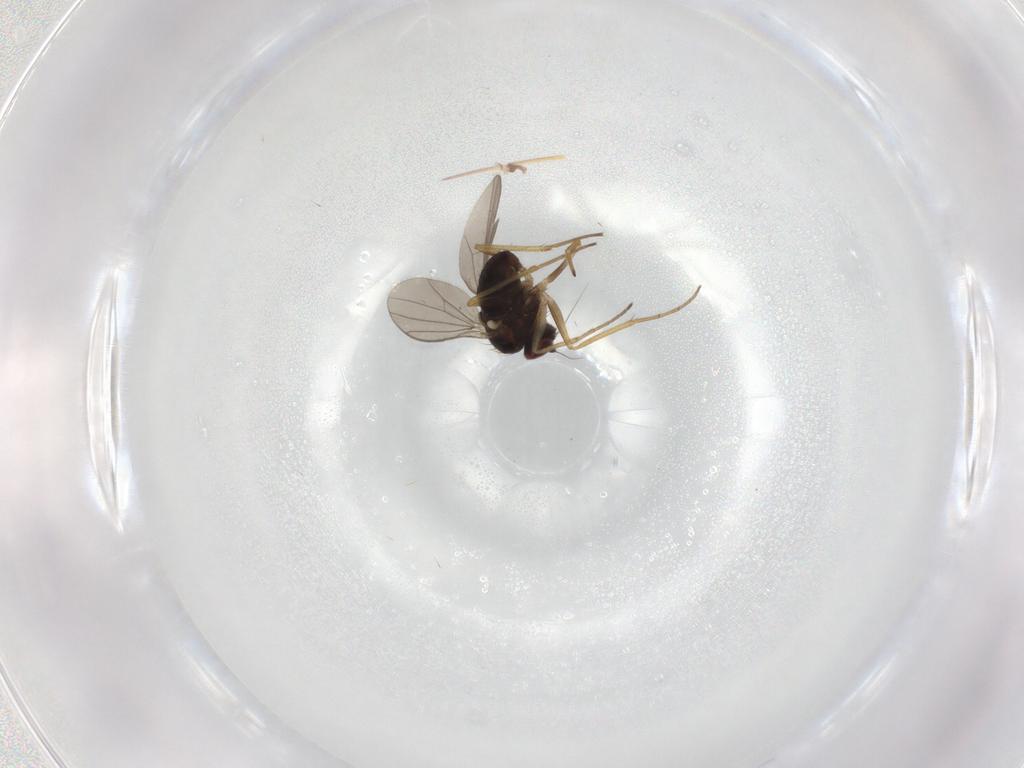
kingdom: Animalia
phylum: Arthropoda
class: Insecta
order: Diptera
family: Dolichopodidae
